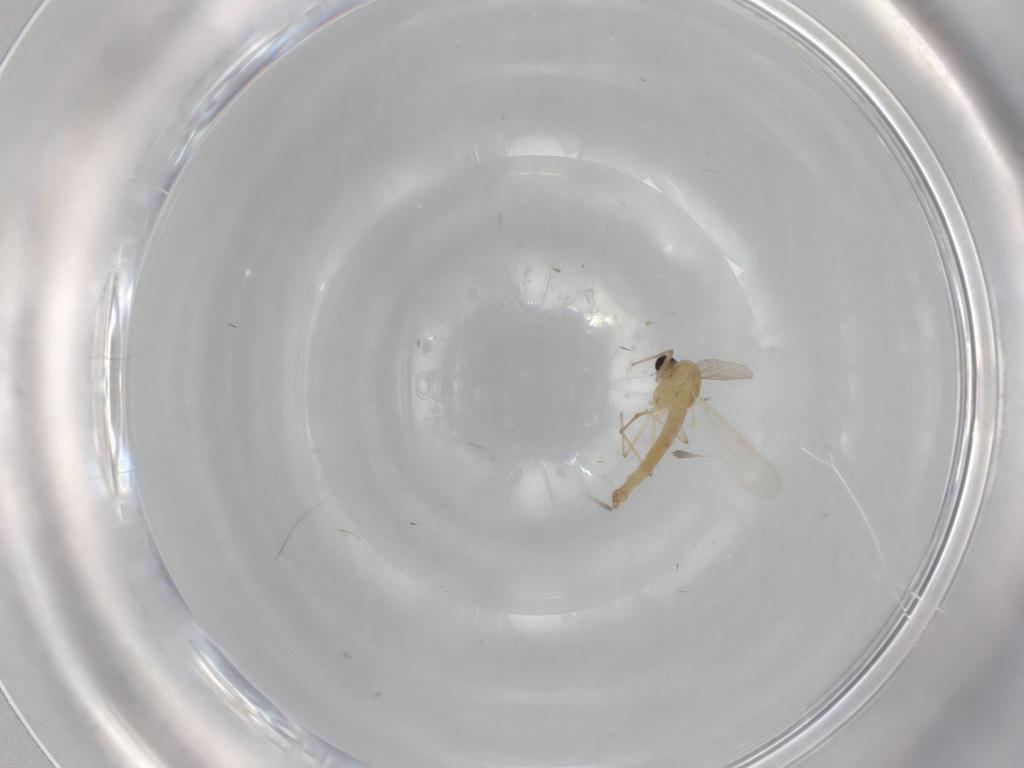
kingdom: Animalia
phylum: Arthropoda
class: Insecta
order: Diptera
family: Chironomidae
